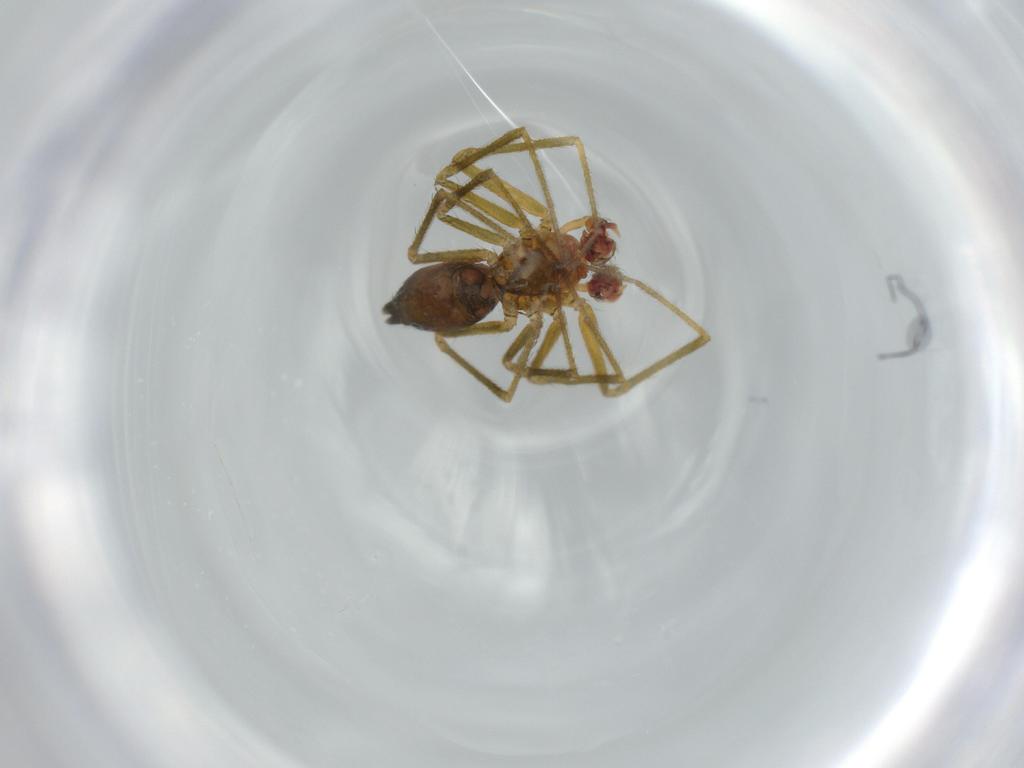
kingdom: Animalia
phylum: Arthropoda
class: Arachnida
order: Araneae
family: Linyphiidae
